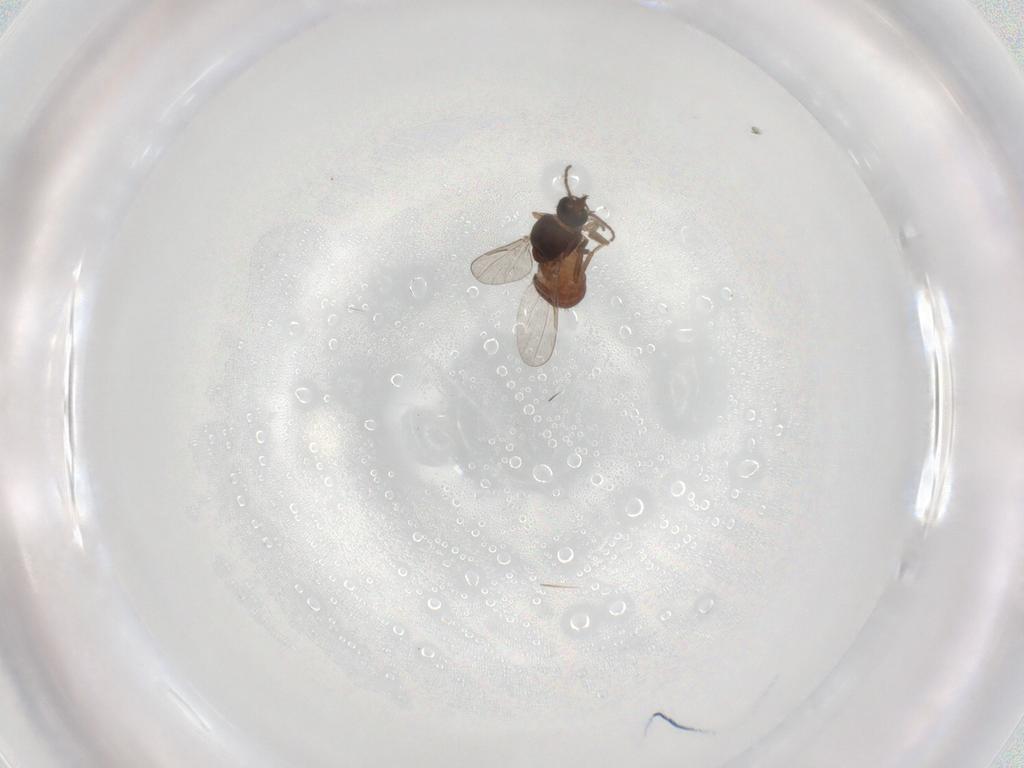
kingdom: Animalia
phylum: Arthropoda
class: Insecta
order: Diptera
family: Ceratopogonidae
